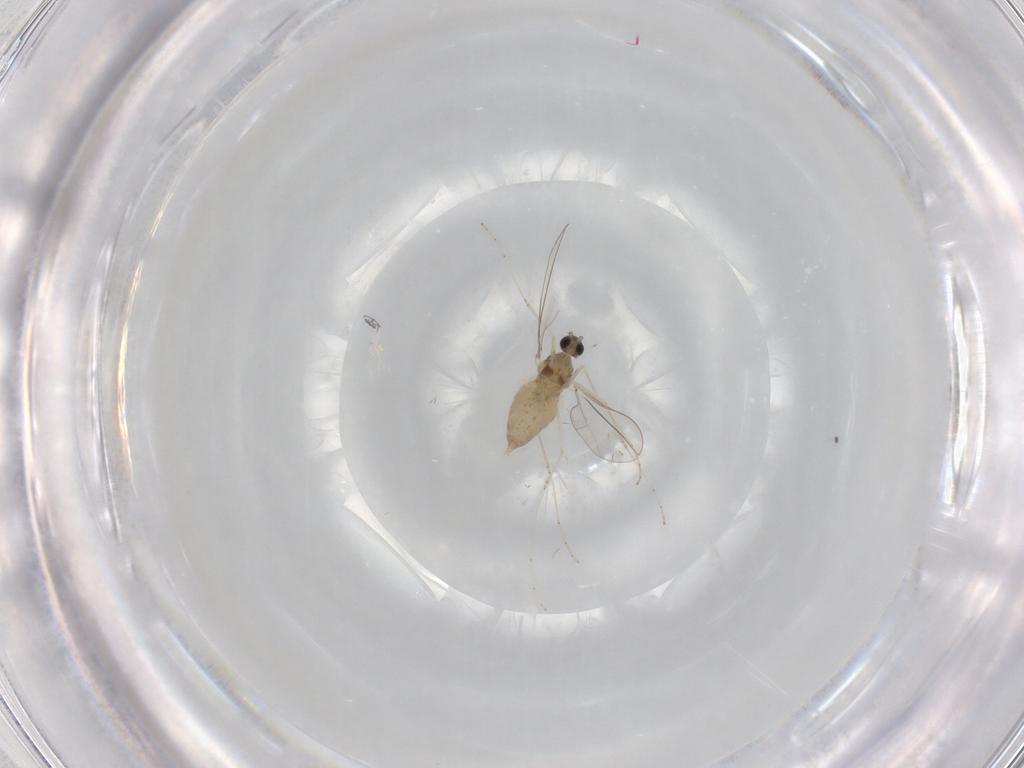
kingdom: Animalia
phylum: Arthropoda
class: Insecta
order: Diptera
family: Cecidomyiidae
